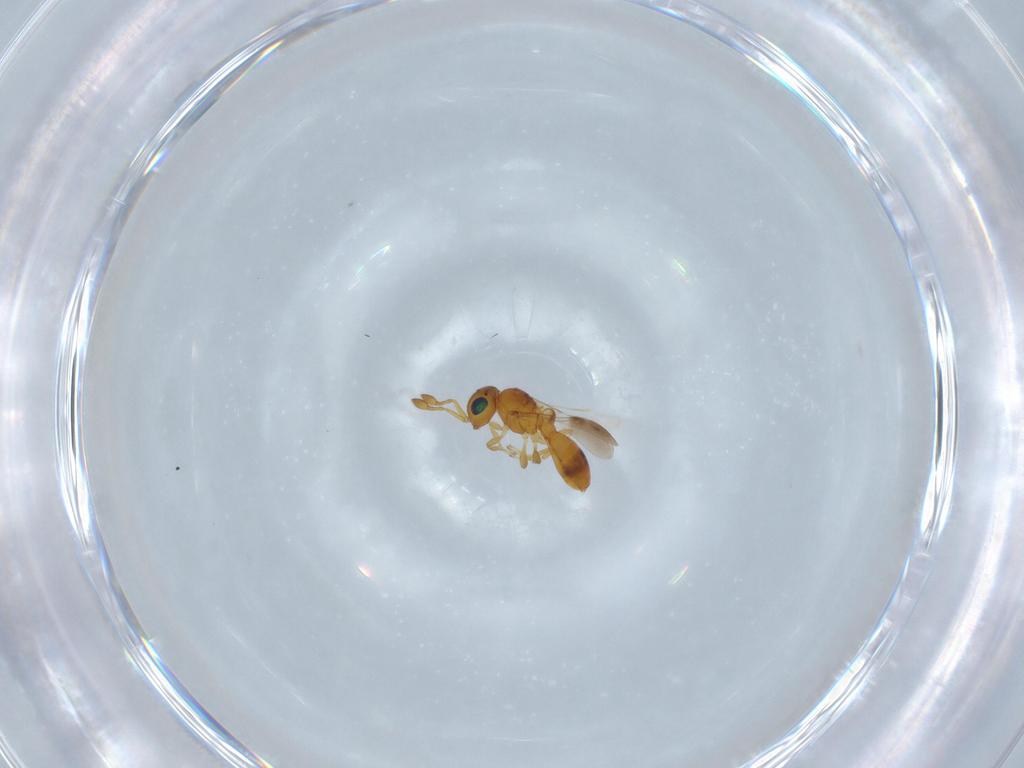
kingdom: Animalia
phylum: Arthropoda
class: Insecta
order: Hymenoptera
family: Scelionidae
